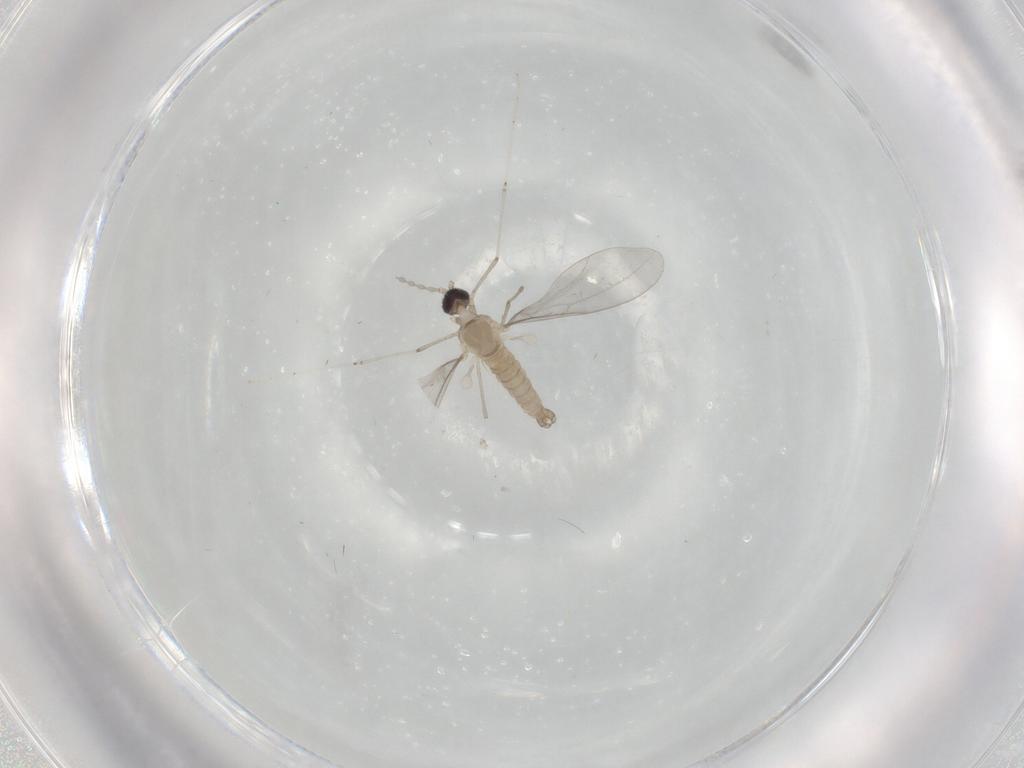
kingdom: Animalia
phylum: Arthropoda
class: Insecta
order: Diptera
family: Cecidomyiidae
